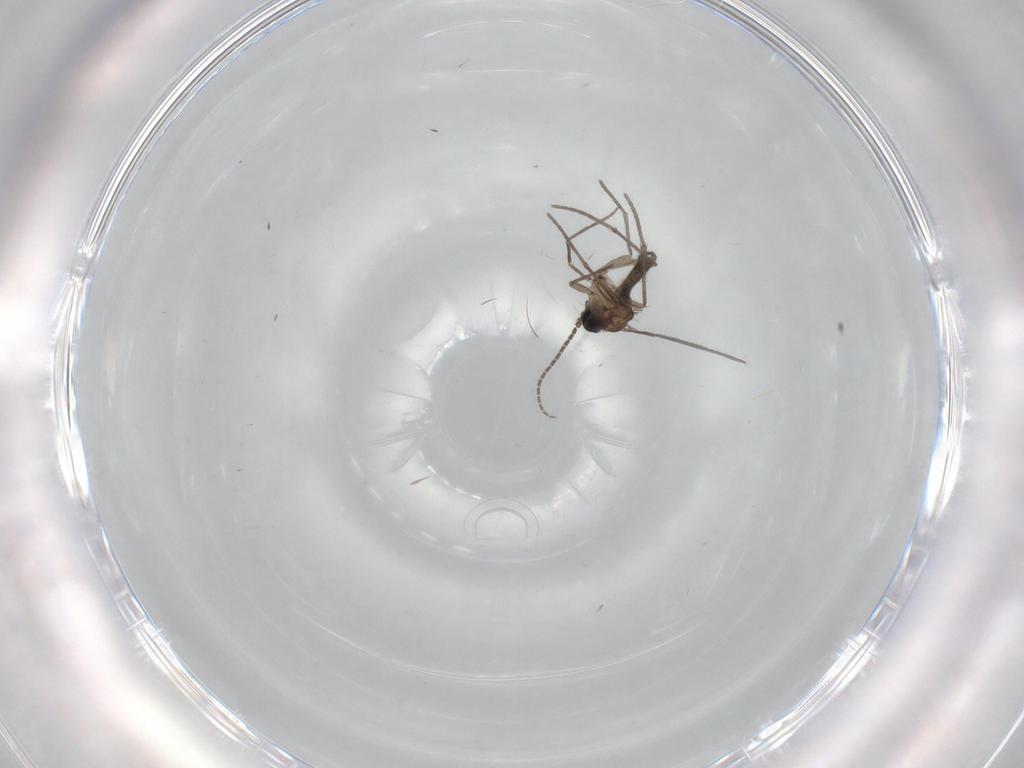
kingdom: Animalia
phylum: Arthropoda
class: Insecta
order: Diptera
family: Sciaridae
